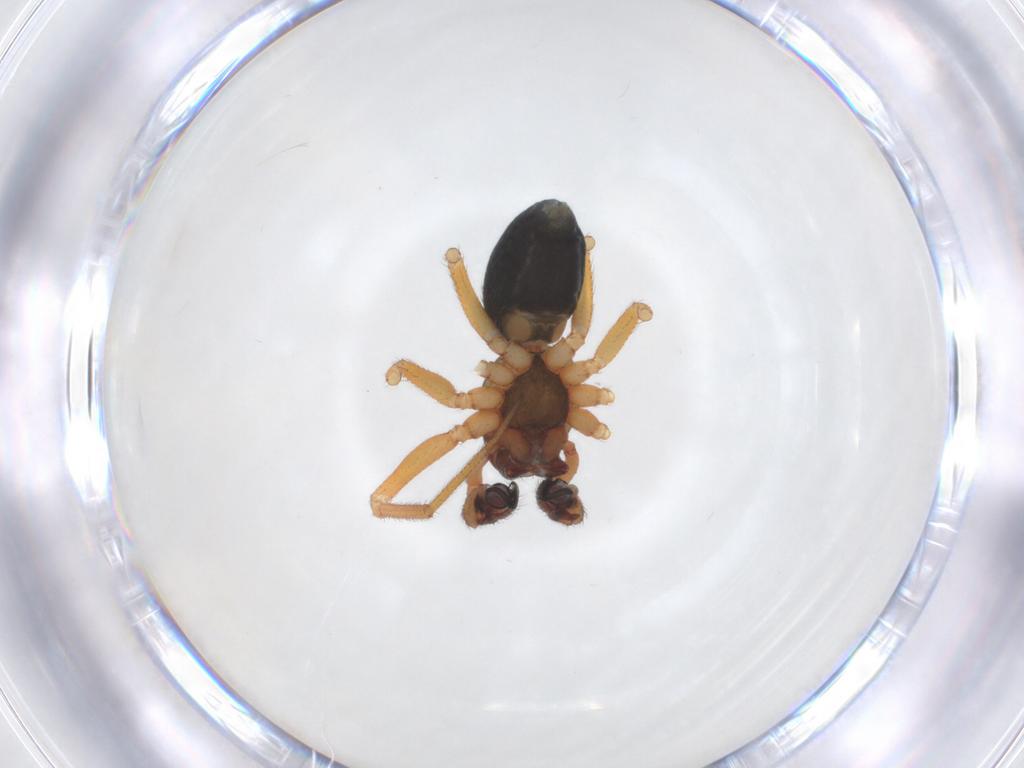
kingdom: Animalia
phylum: Arthropoda
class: Arachnida
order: Araneae
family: Linyphiidae
